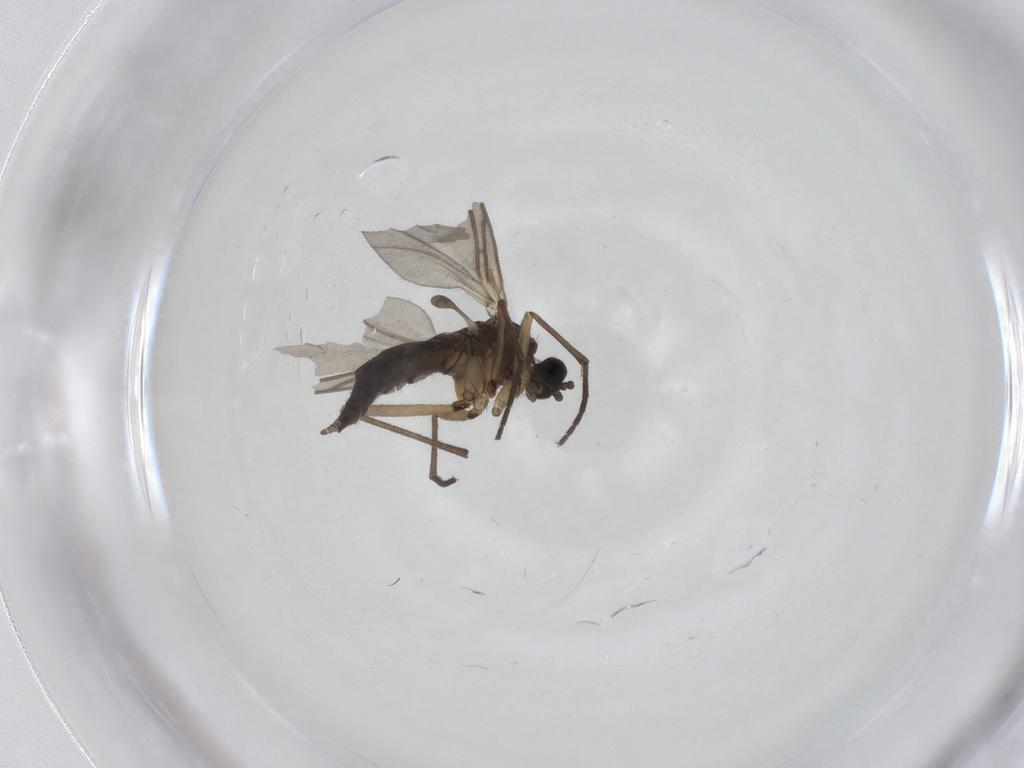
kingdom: Animalia
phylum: Arthropoda
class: Insecta
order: Diptera
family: Sciaridae
